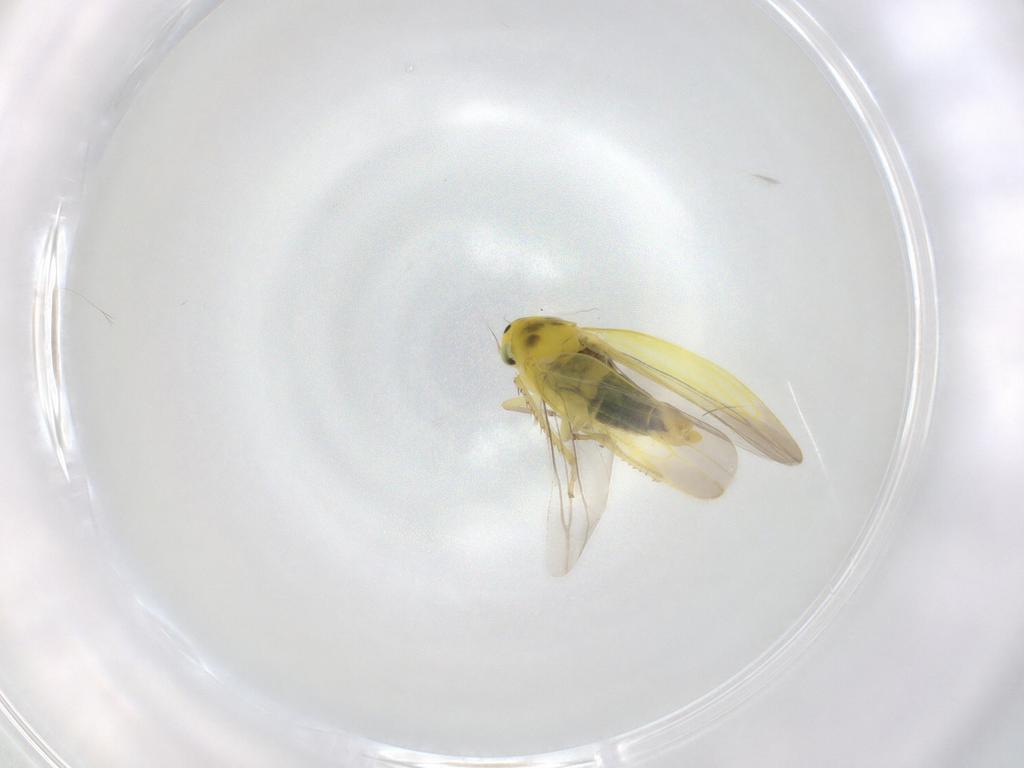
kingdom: Animalia
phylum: Arthropoda
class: Insecta
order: Hemiptera
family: Cicadellidae
